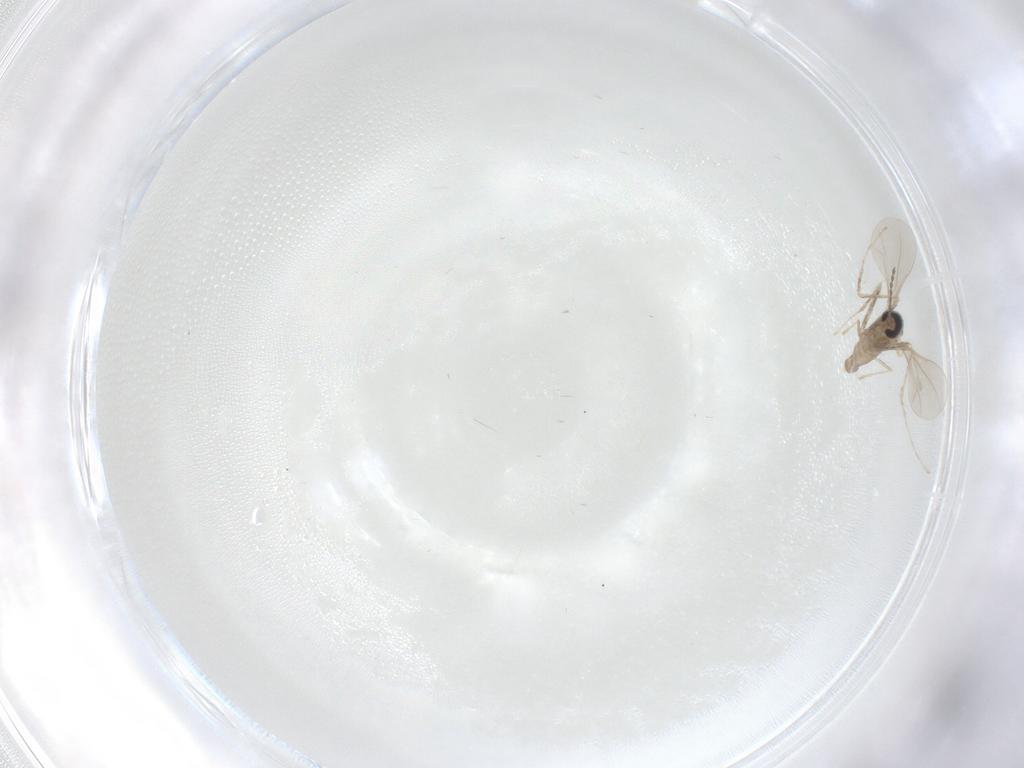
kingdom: Animalia
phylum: Arthropoda
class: Insecta
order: Diptera
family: Cecidomyiidae
